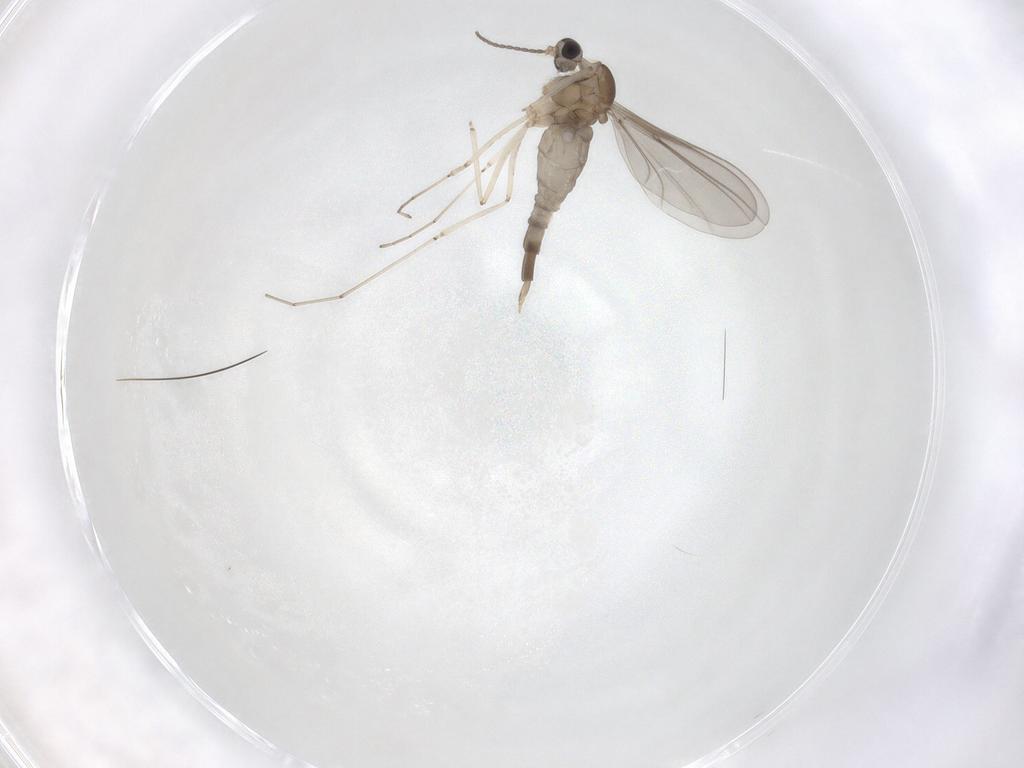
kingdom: Animalia
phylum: Arthropoda
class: Insecta
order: Diptera
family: Cecidomyiidae
